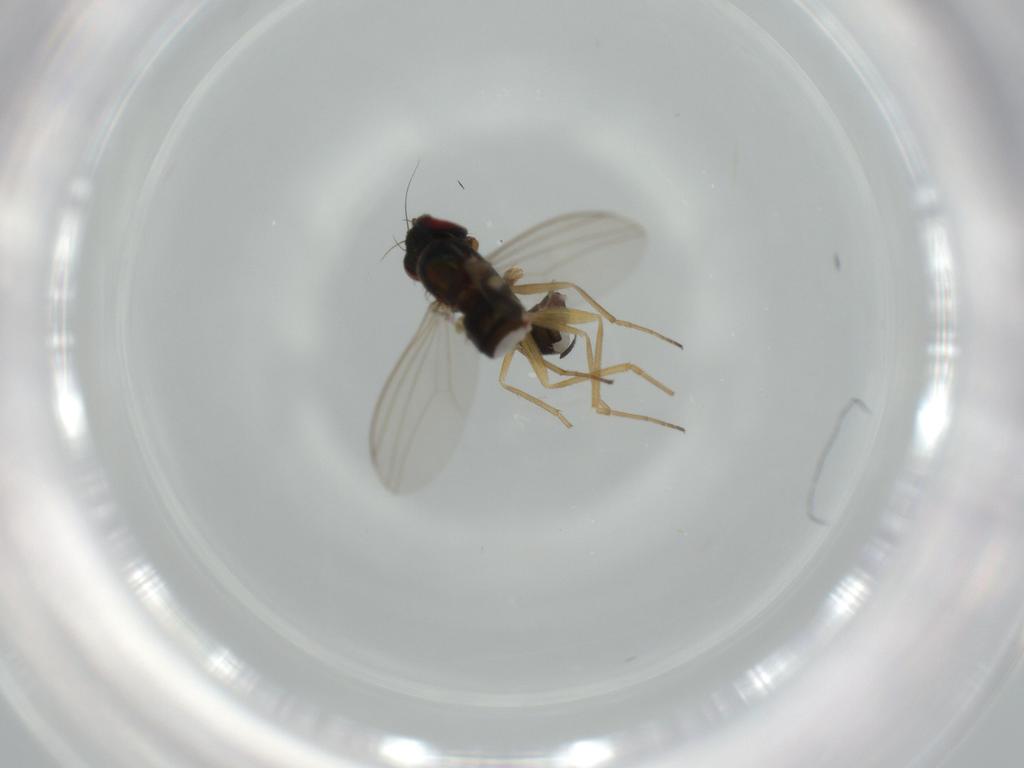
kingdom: Animalia
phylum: Arthropoda
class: Insecta
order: Diptera
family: Dolichopodidae
